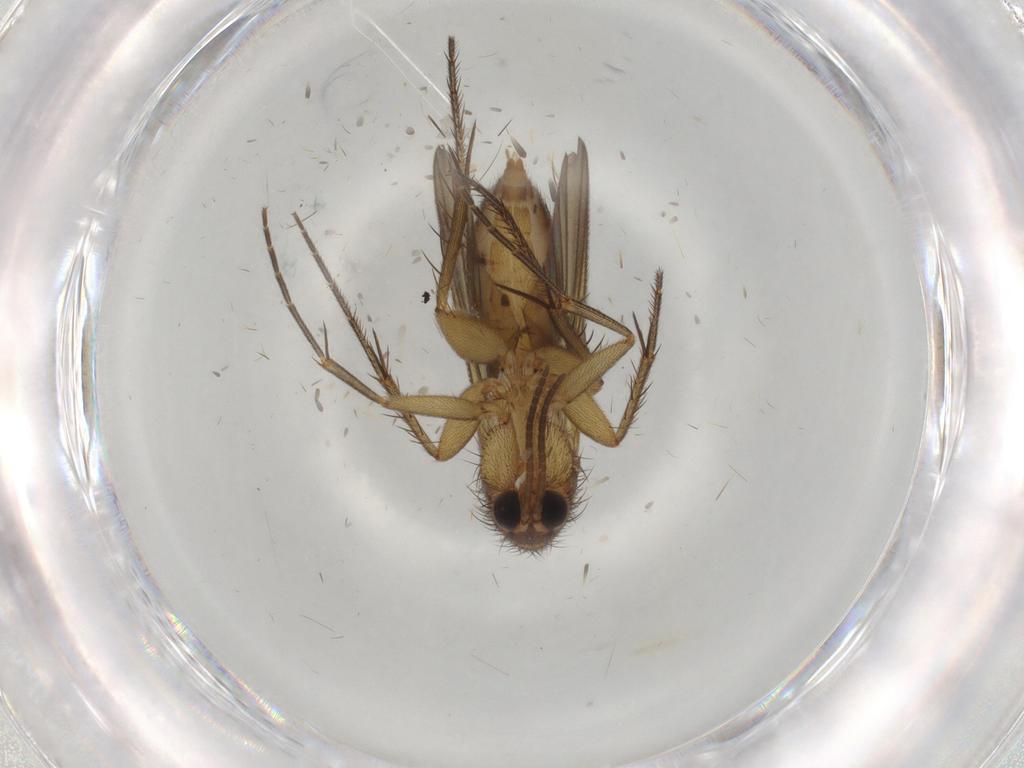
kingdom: Animalia
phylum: Arthropoda
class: Insecta
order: Diptera
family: Mycetophilidae
